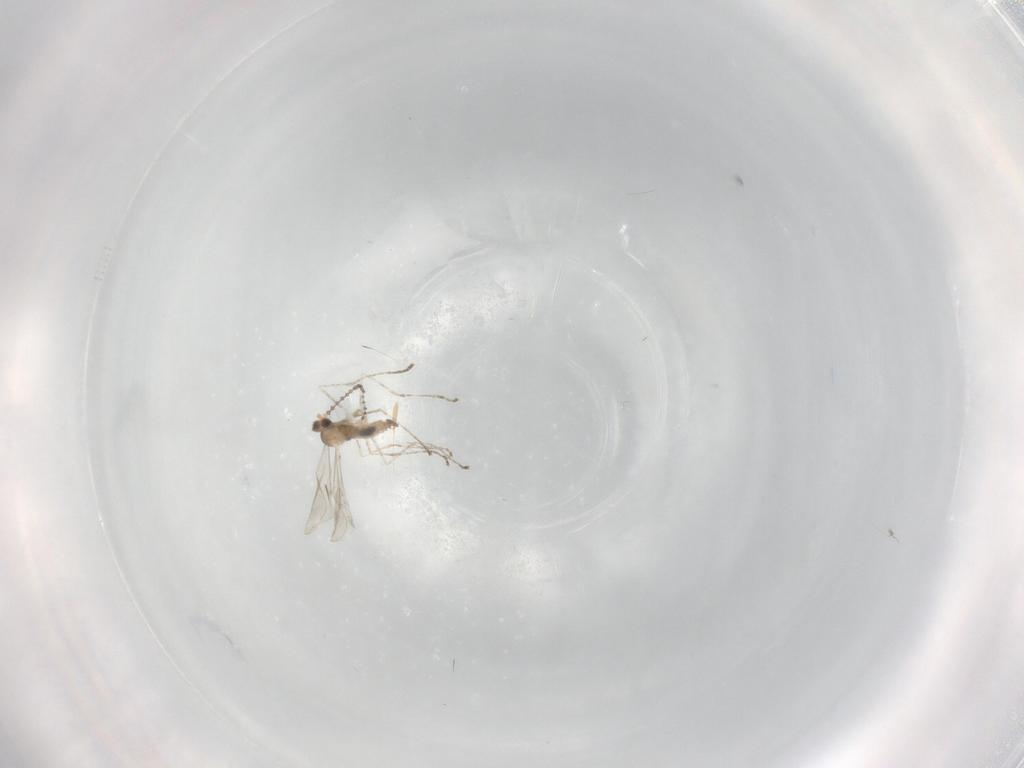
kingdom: Animalia
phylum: Arthropoda
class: Insecta
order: Diptera
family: Cecidomyiidae
